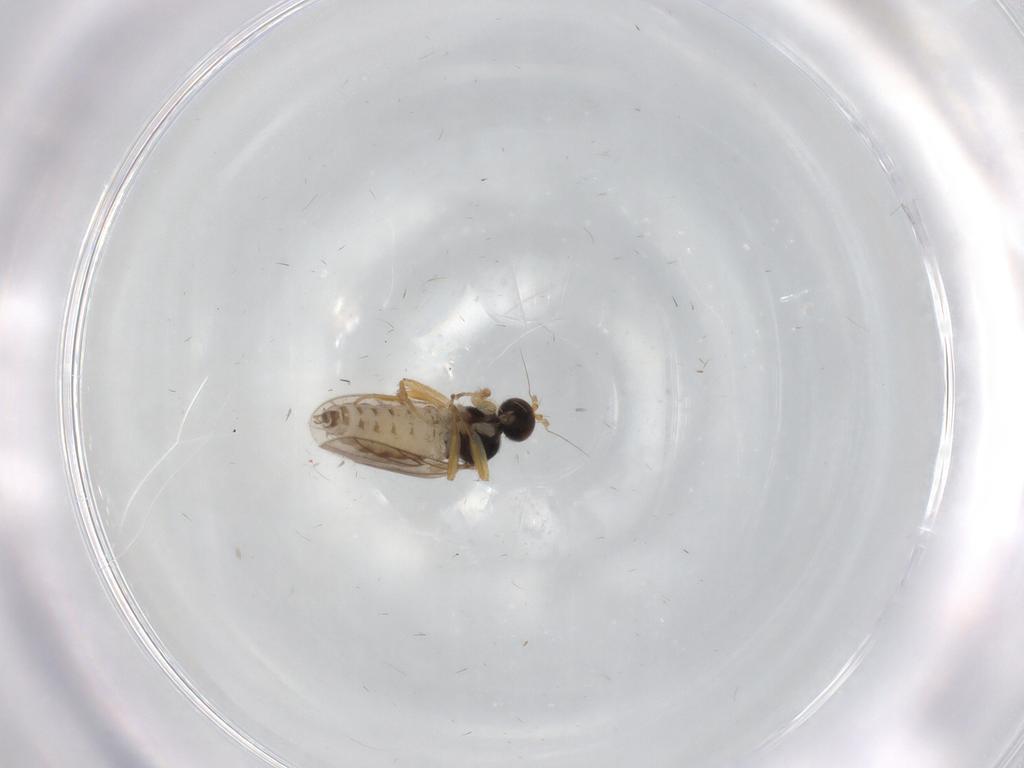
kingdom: Animalia
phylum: Arthropoda
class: Insecta
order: Diptera
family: Hybotidae
